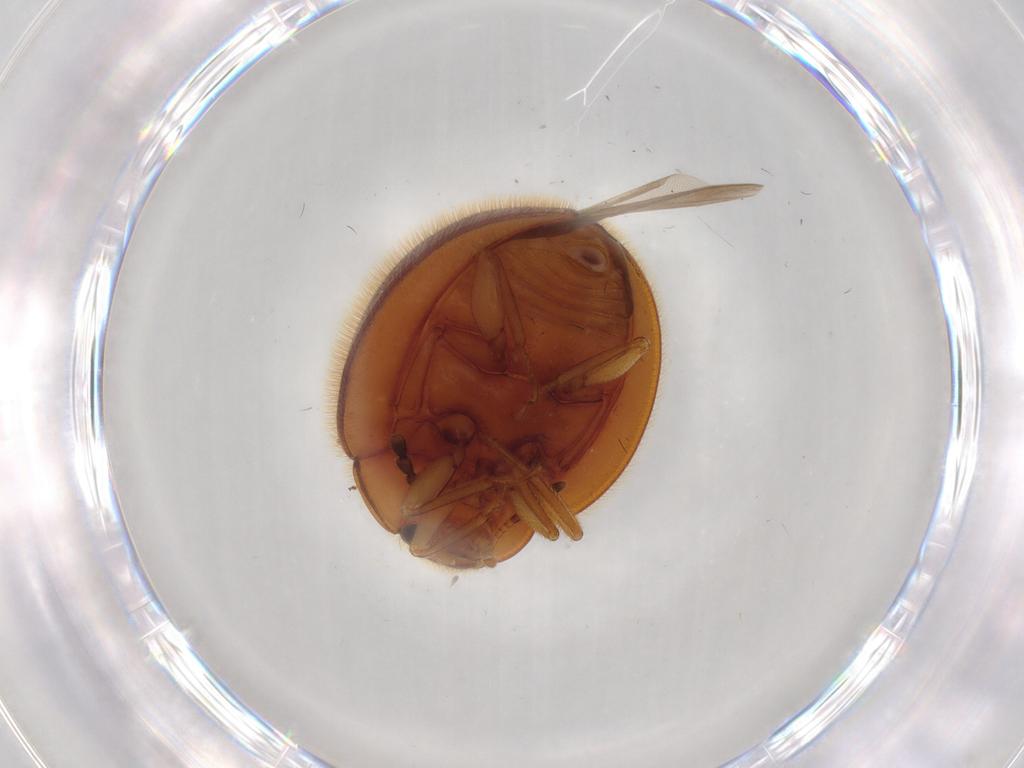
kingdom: Animalia
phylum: Arthropoda
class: Insecta
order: Coleoptera
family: Anamorphidae
